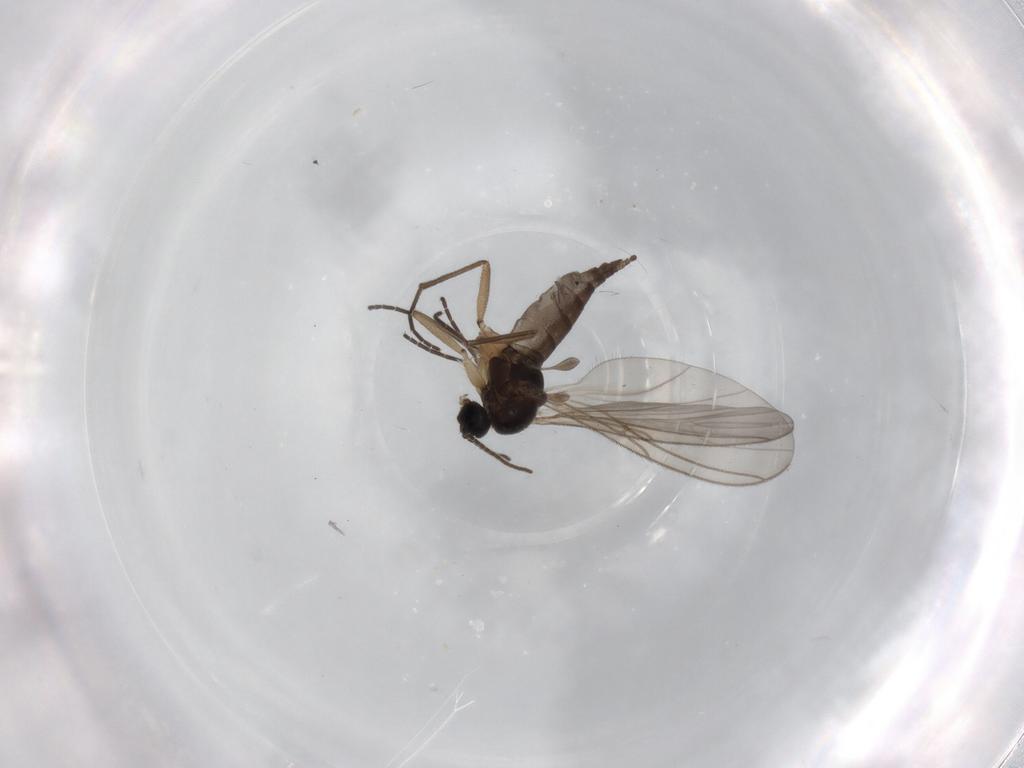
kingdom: Animalia
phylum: Arthropoda
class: Insecta
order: Diptera
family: Sciaridae
